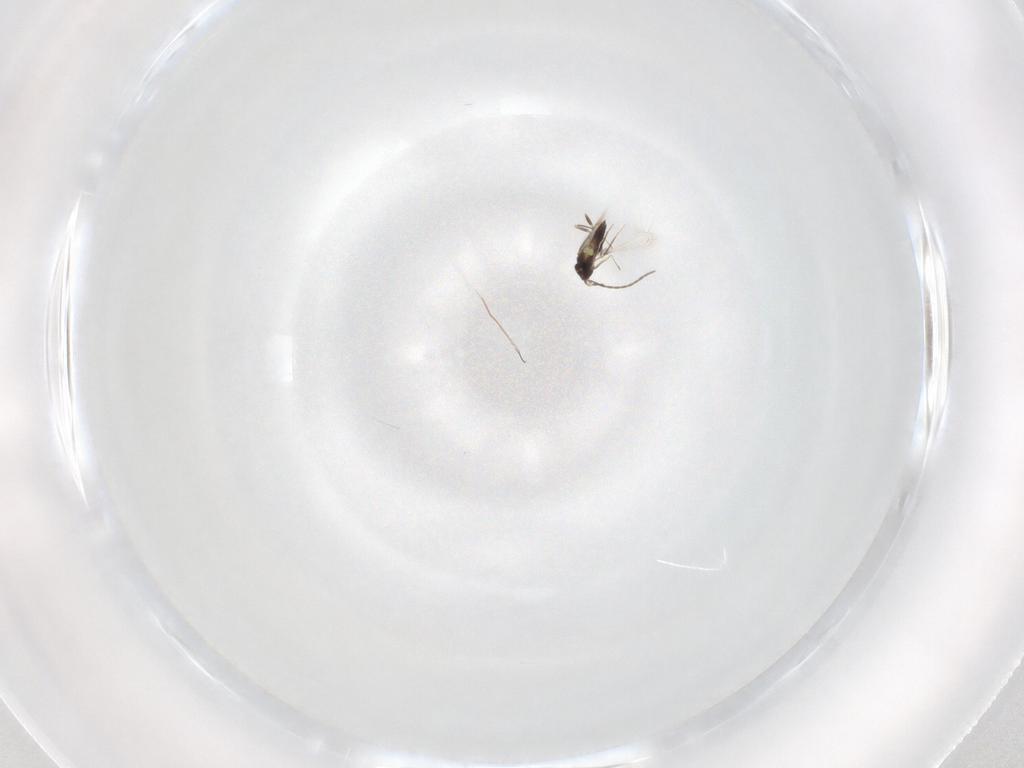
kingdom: Animalia
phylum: Arthropoda
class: Insecta
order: Hymenoptera
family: Mymaridae
